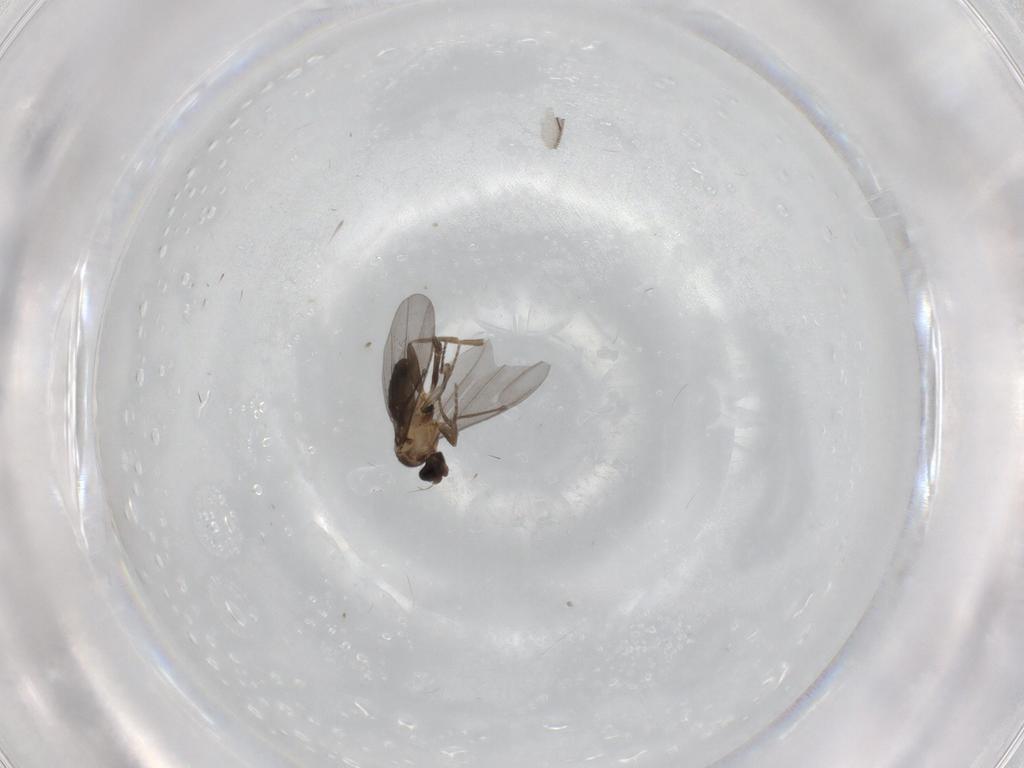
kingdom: Animalia
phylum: Arthropoda
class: Insecta
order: Diptera
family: Phoridae
